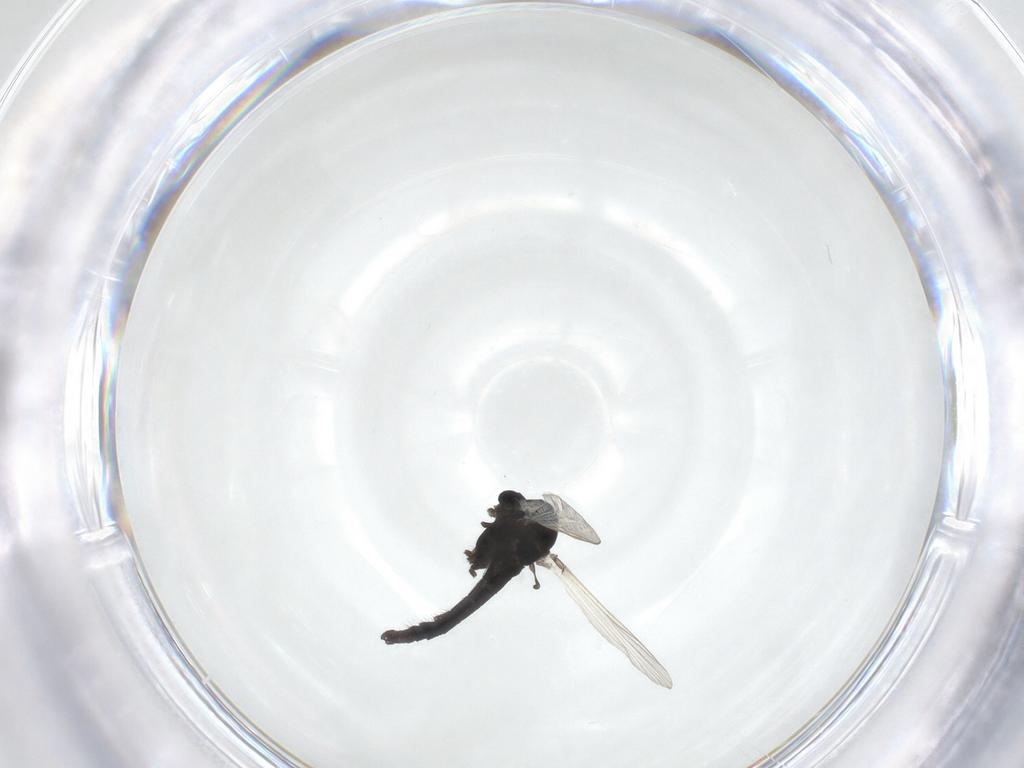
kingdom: Animalia
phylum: Arthropoda
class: Insecta
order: Diptera
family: Chironomidae
